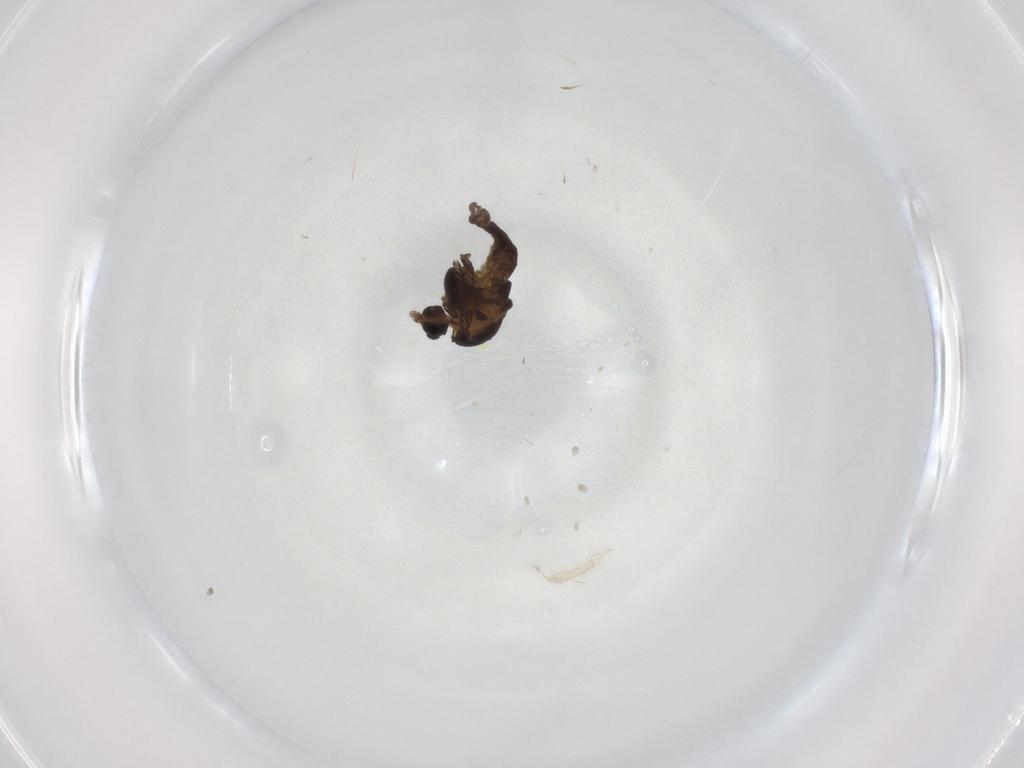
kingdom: Animalia
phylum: Arthropoda
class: Insecta
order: Diptera
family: Chironomidae
